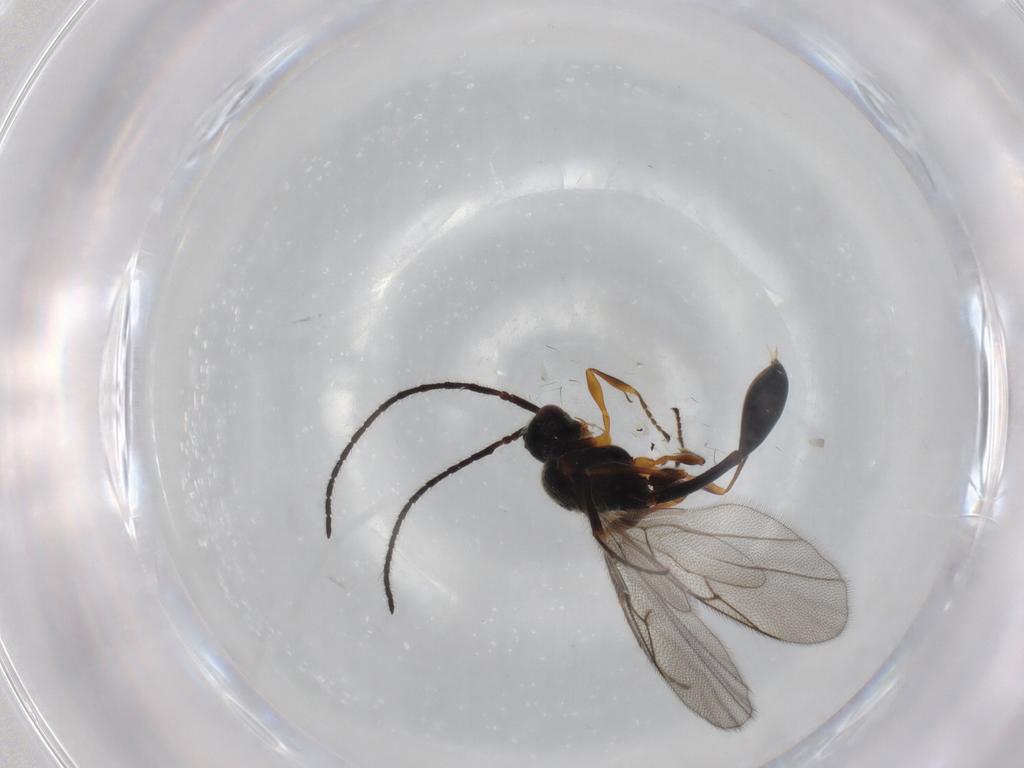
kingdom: Animalia
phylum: Arthropoda
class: Insecta
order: Hymenoptera
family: Diapriidae
